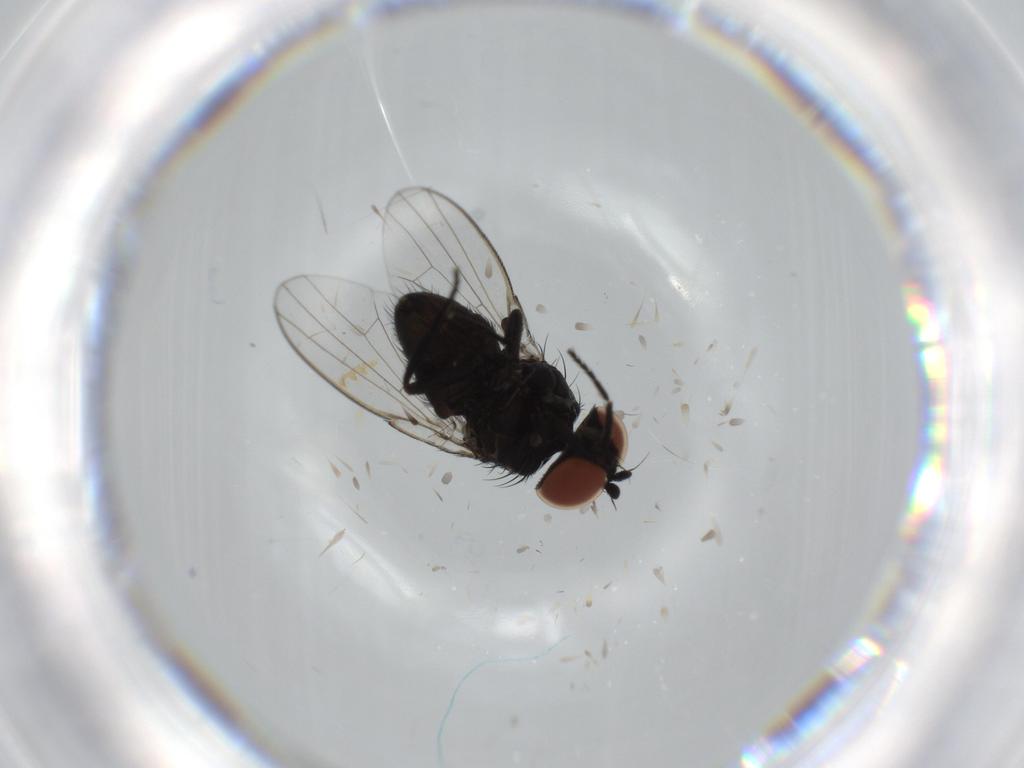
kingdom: Animalia
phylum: Arthropoda
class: Insecta
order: Diptera
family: Milichiidae
